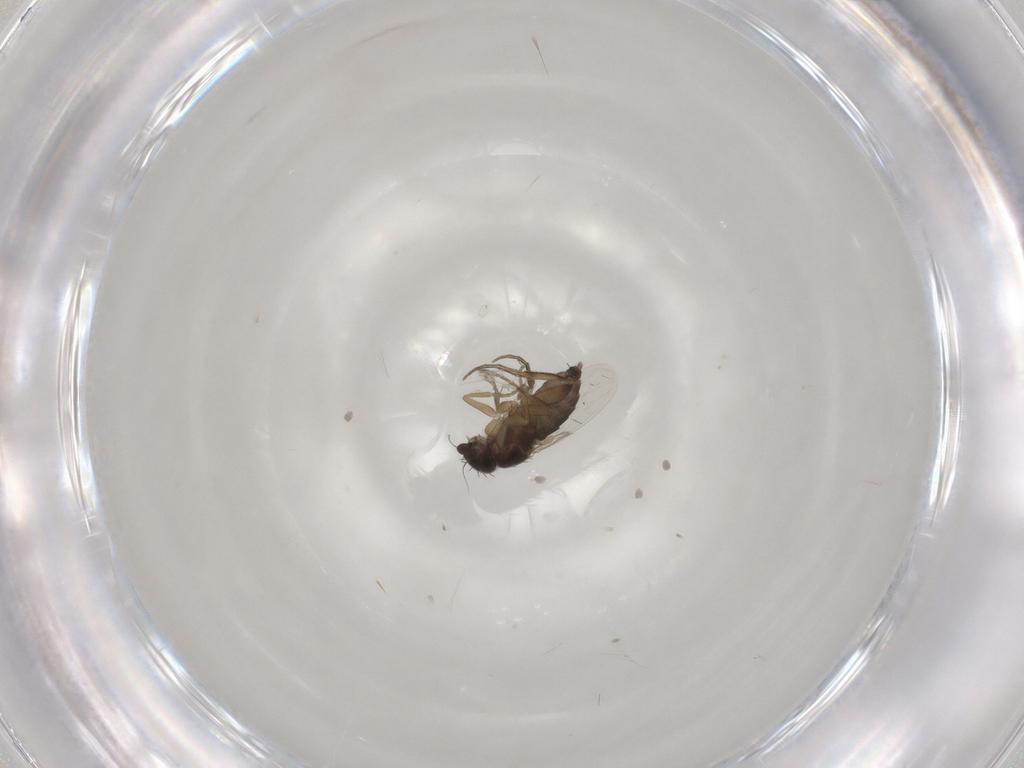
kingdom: Animalia
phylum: Arthropoda
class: Insecta
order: Diptera
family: Phoridae
